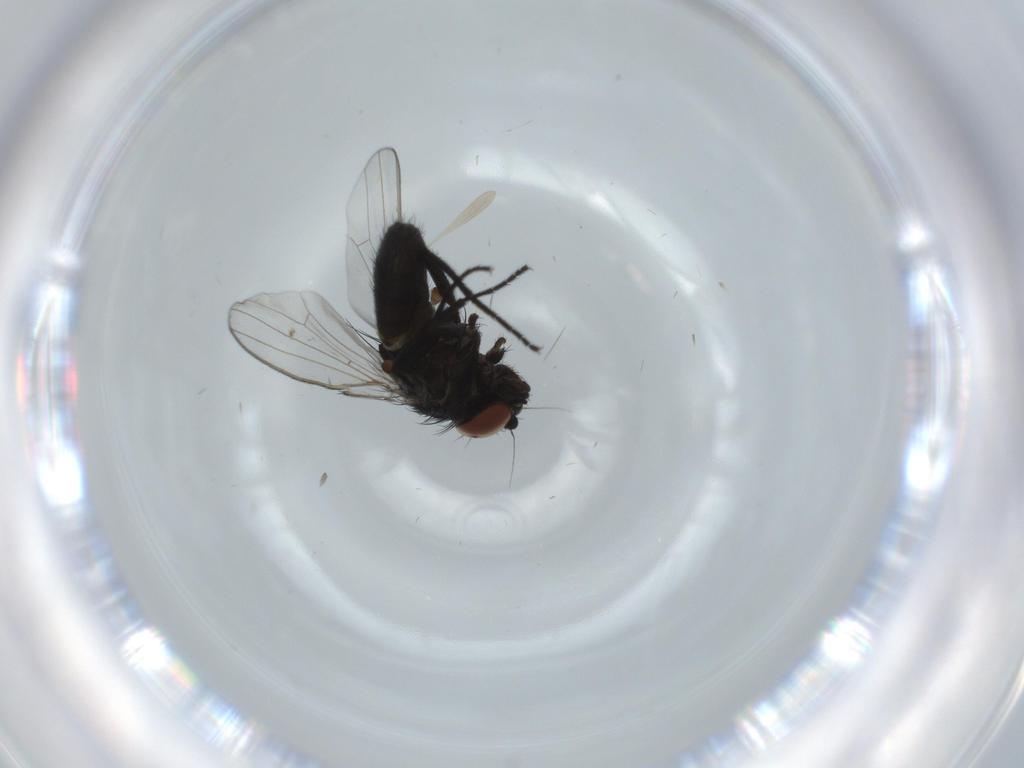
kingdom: Animalia
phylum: Arthropoda
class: Insecta
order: Diptera
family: Milichiidae
